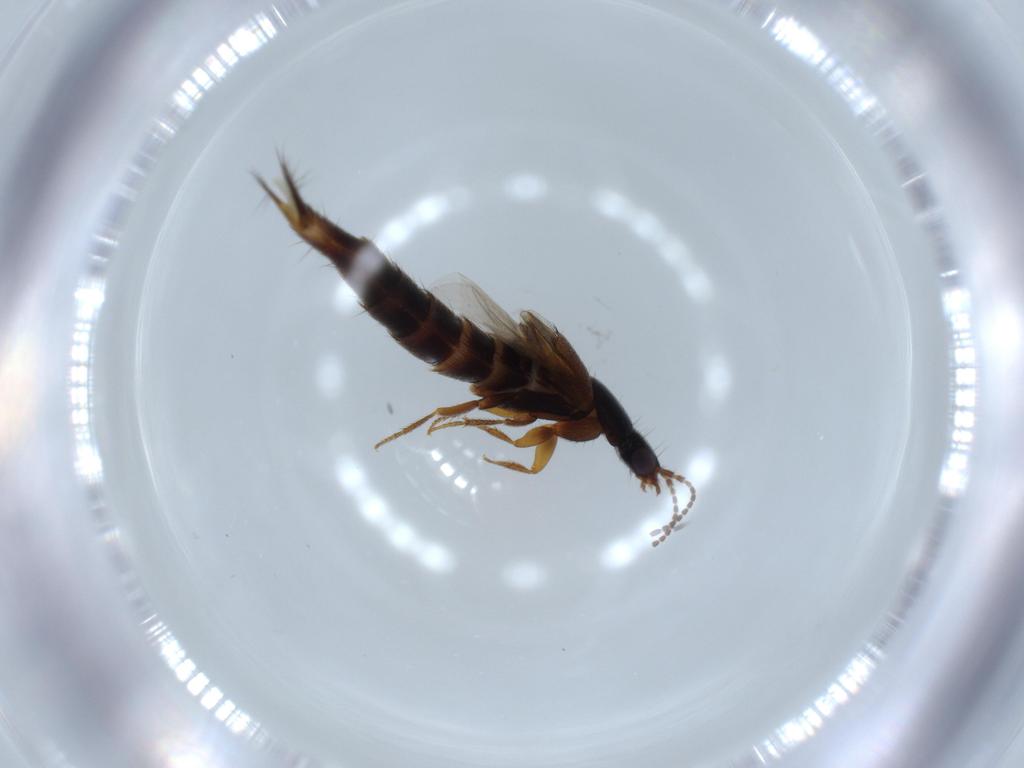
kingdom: Animalia
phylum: Arthropoda
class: Insecta
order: Coleoptera
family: Staphylinidae
